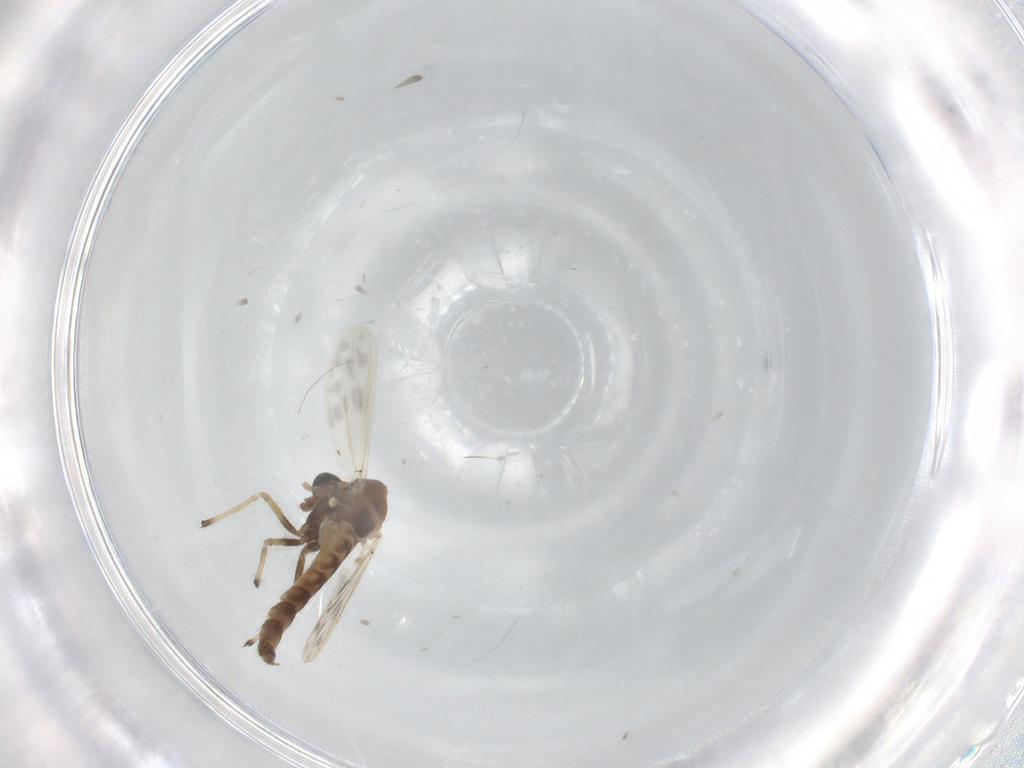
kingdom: Animalia
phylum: Arthropoda
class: Insecta
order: Diptera
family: Chironomidae
